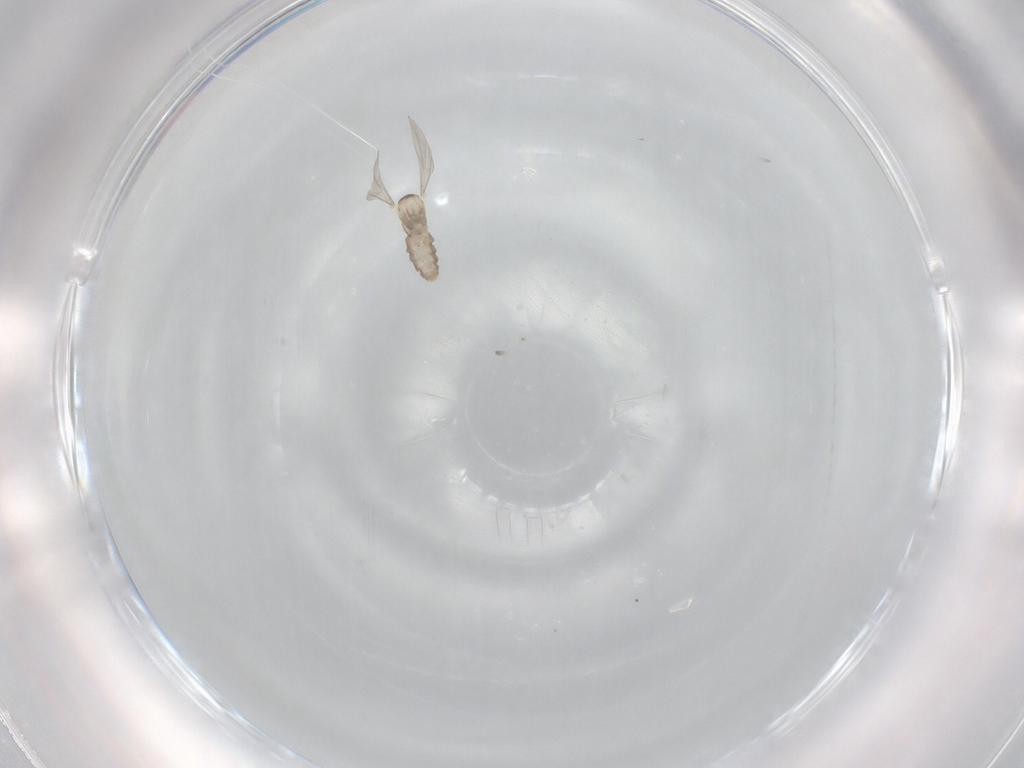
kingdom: Animalia
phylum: Arthropoda
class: Insecta
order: Diptera
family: Cecidomyiidae
